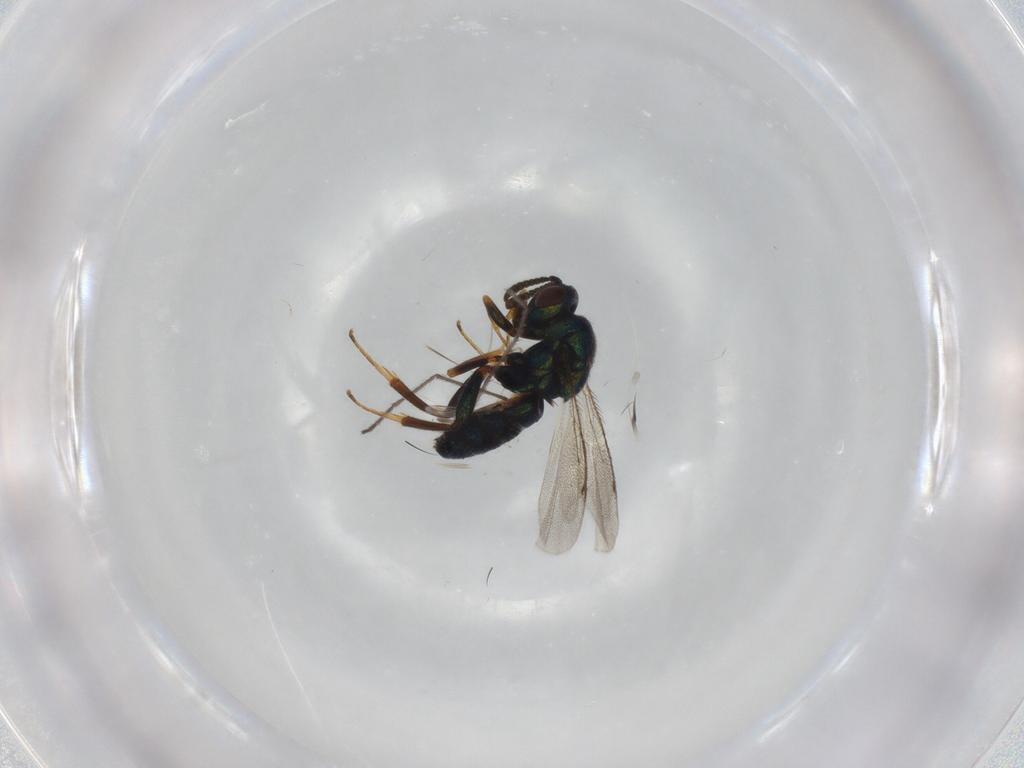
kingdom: Animalia
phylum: Arthropoda
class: Insecta
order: Hymenoptera
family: Ormyridae
